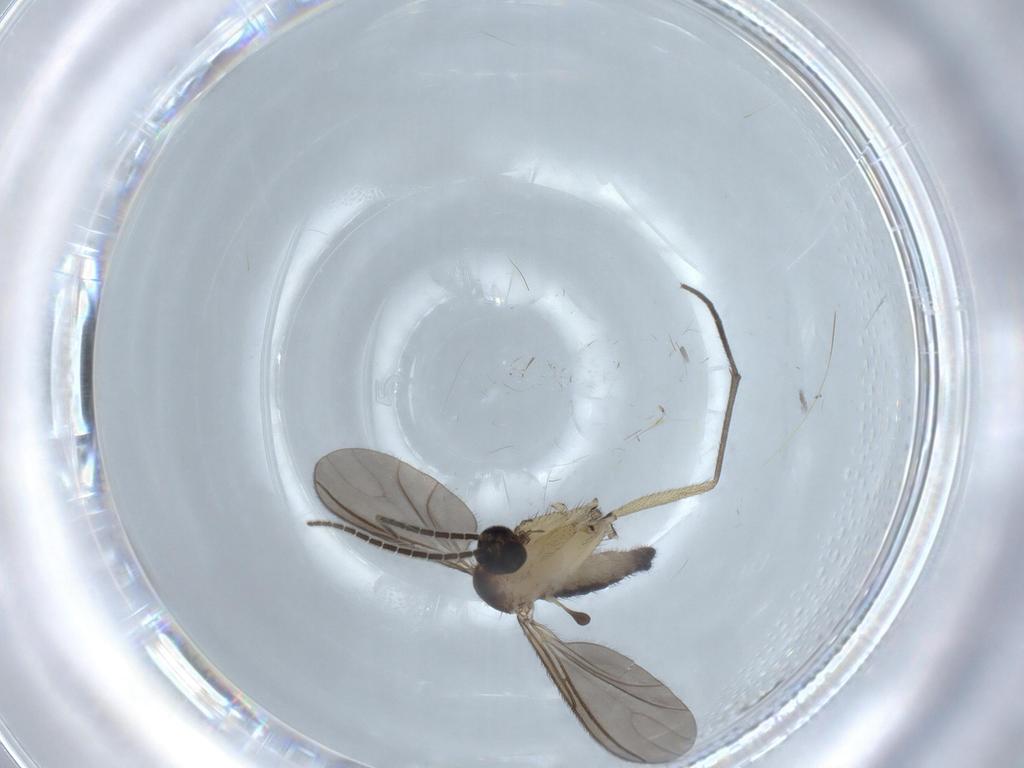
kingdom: Animalia
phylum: Arthropoda
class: Insecta
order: Diptera
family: Sciaridae
